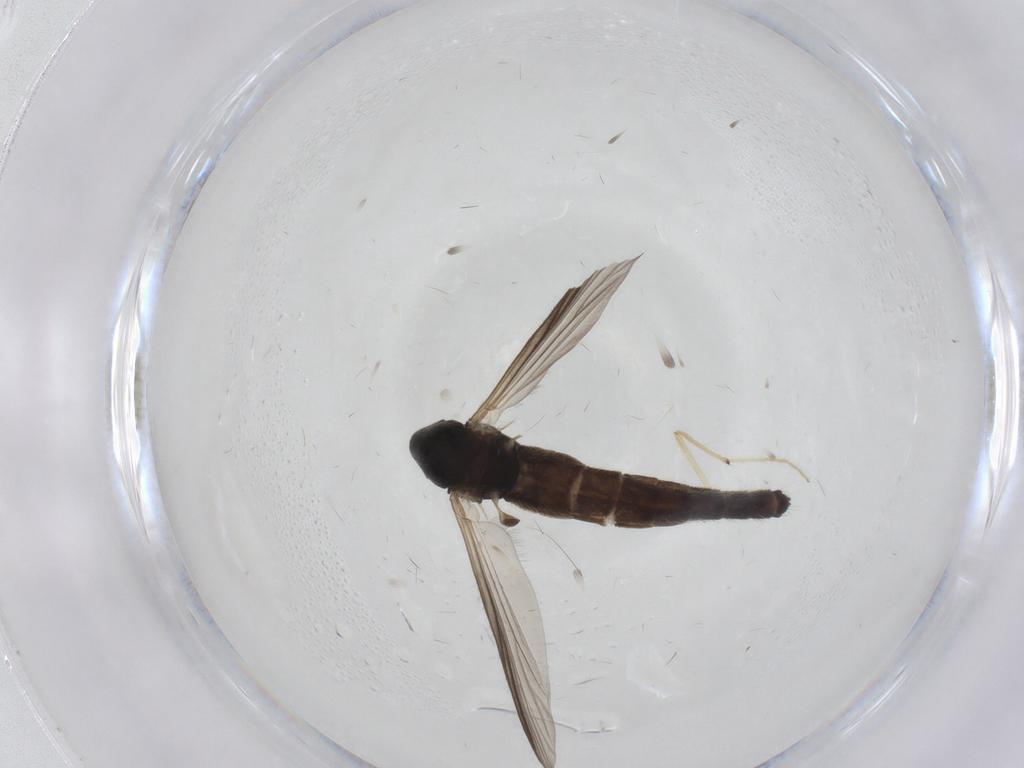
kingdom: Animalia
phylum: Arthropoda
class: Insecta
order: Diptera
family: Chironomidae
